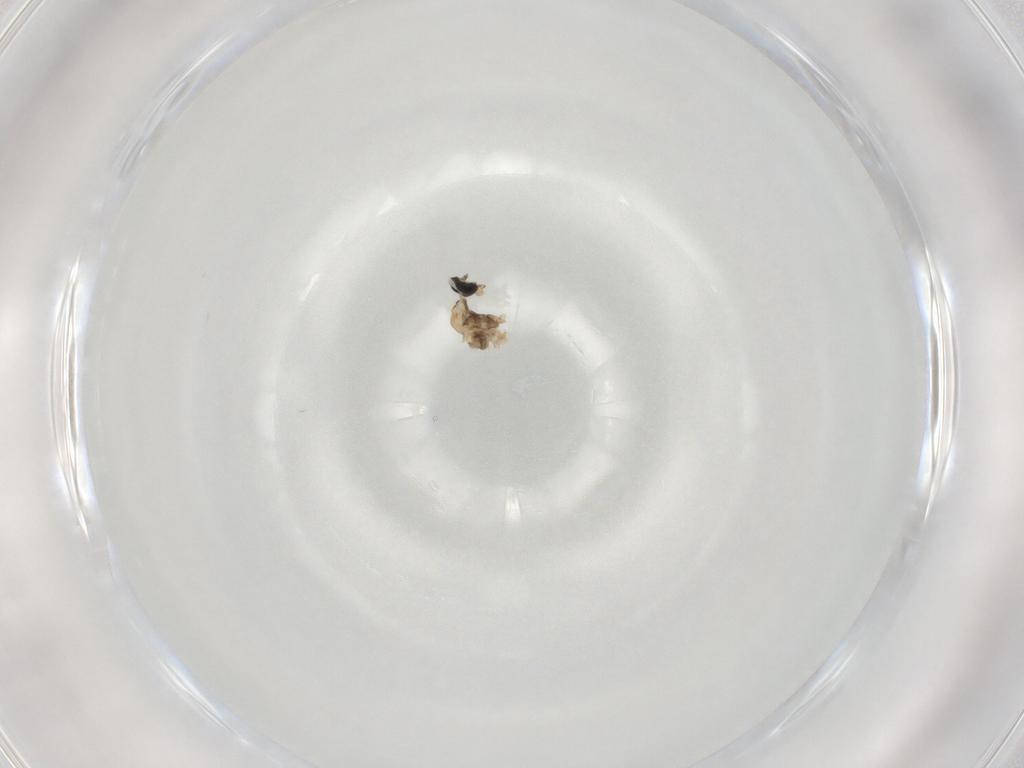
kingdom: Animalia
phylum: Arthropoda
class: Insecta
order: Diptera
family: Cecidomyiidae
